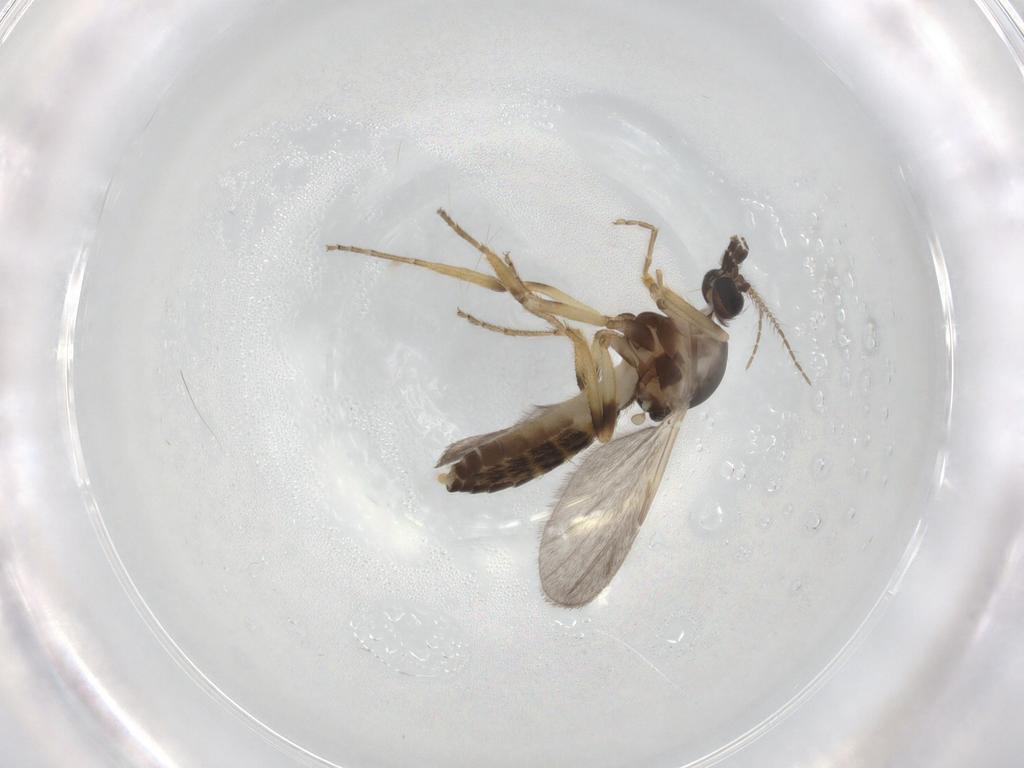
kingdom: Animalia
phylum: Arthropoda
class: Insecta
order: Diptera
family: Ceratopogonidae
